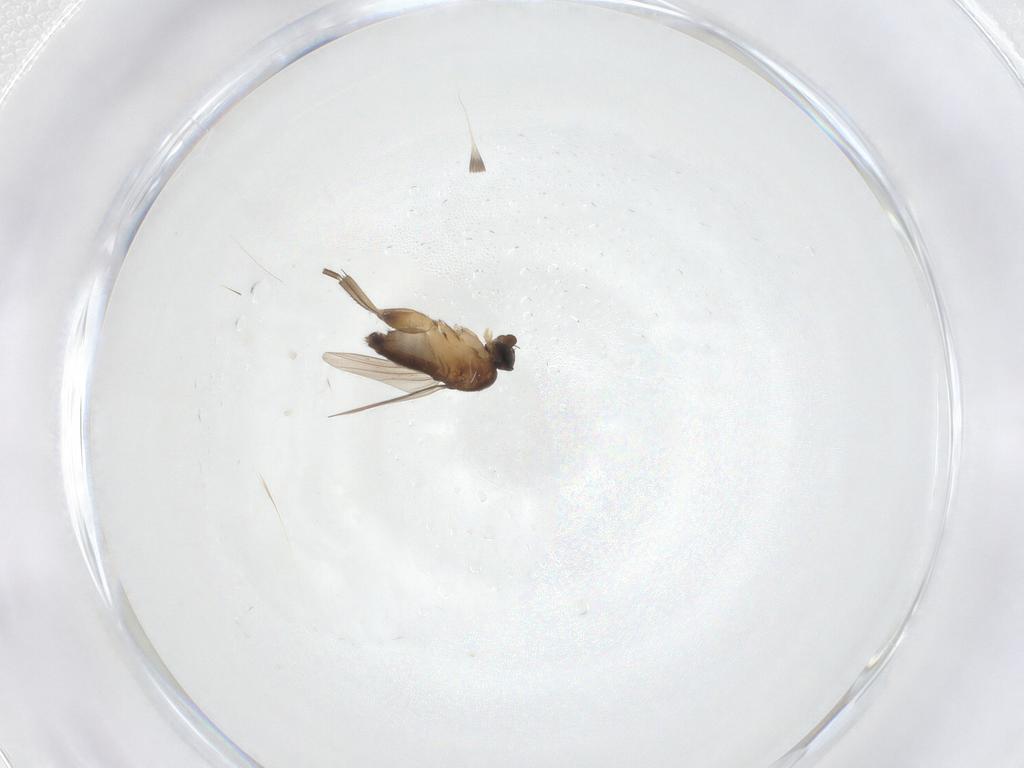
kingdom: Animalia
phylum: Arthropoda
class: Insecta
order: Diptera
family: Phoridae
